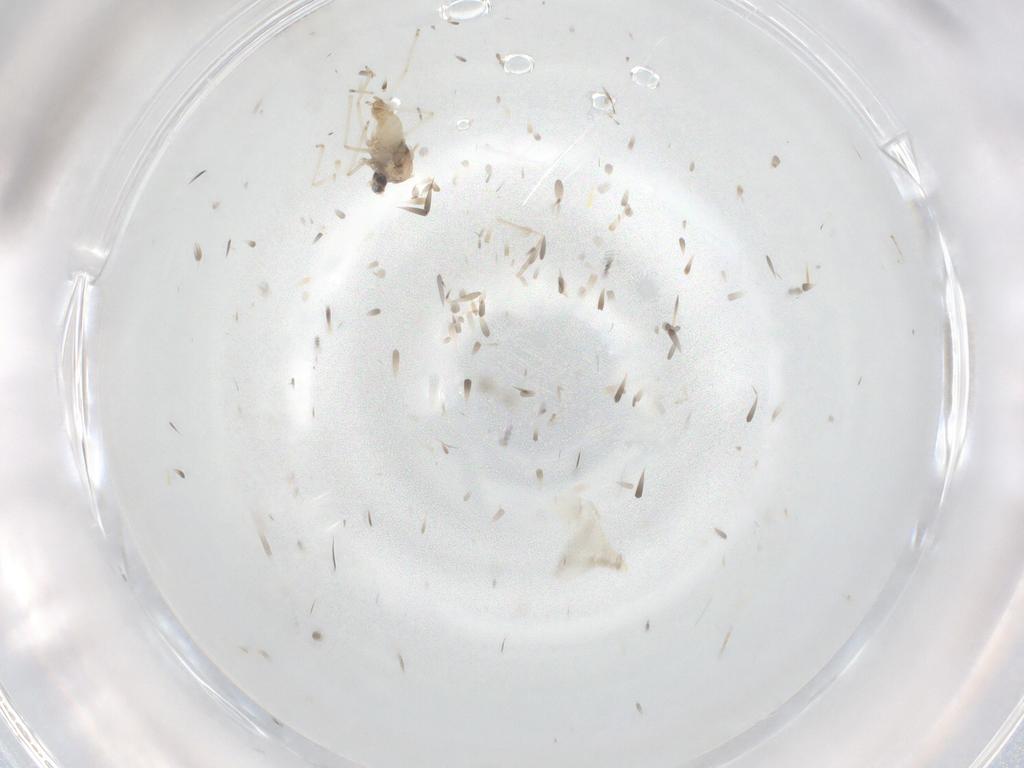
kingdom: Animalia
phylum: Arthropoda
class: Insecta
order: Diptera
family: Cecidomyiidae
